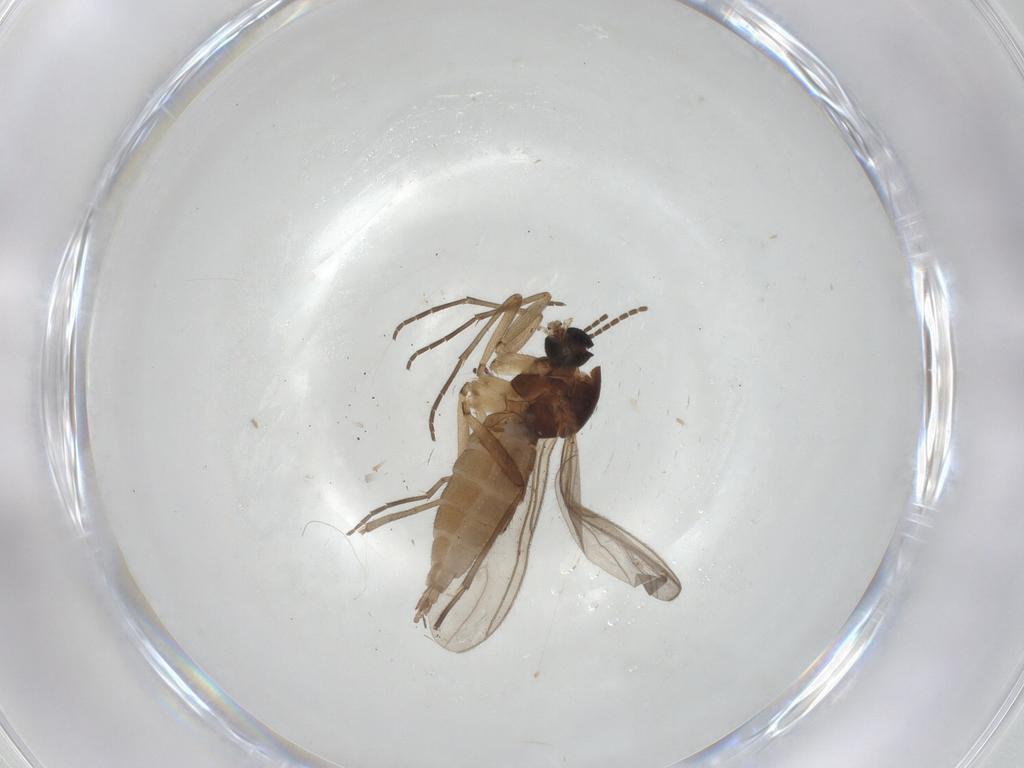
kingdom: Animalia
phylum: Arthropoda
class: Insecta
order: Diptera
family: Sciaridae
